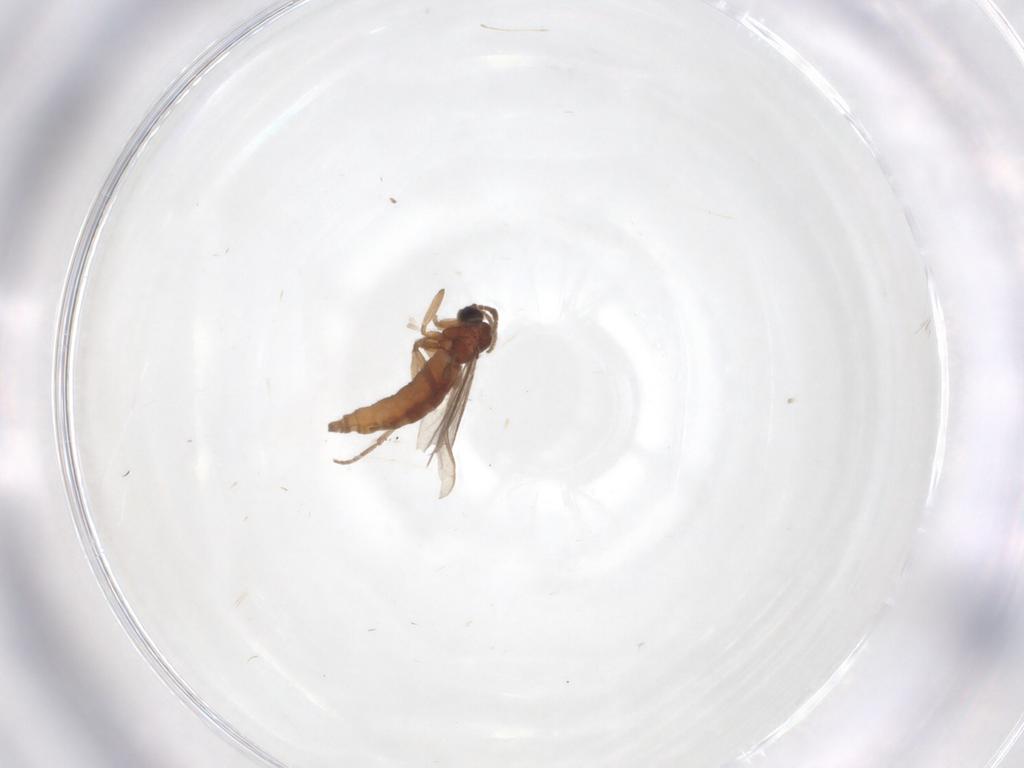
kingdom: Animalia
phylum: Arthropoda
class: Insecta
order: Diptera
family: Sciaridae
